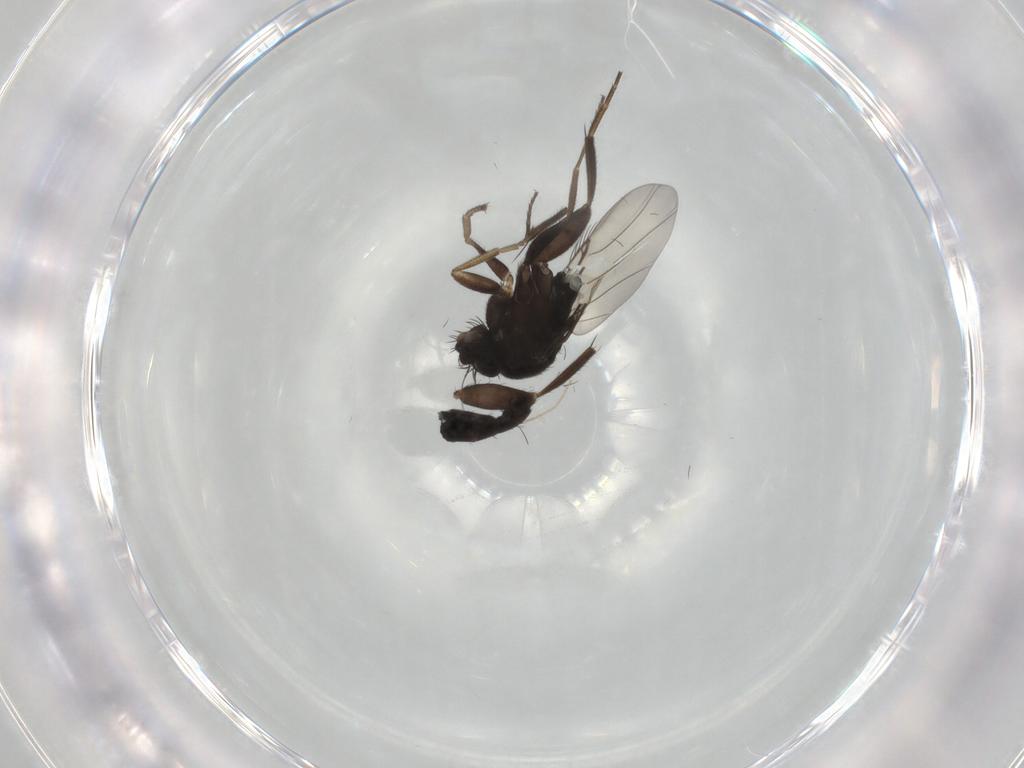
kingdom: Animalia
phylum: Arthropoda
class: Insecta
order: Diptera
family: Phoridae
